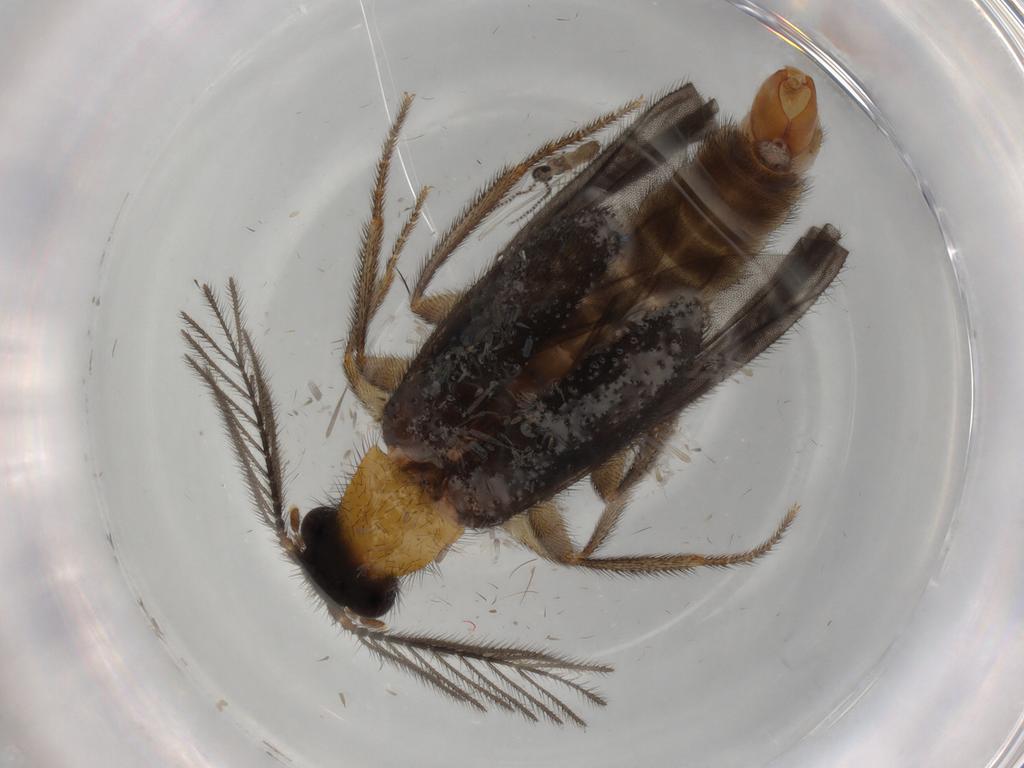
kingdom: Animalia
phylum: Arthropoda
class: Insecta
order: Coleoptera
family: Phengodidae
